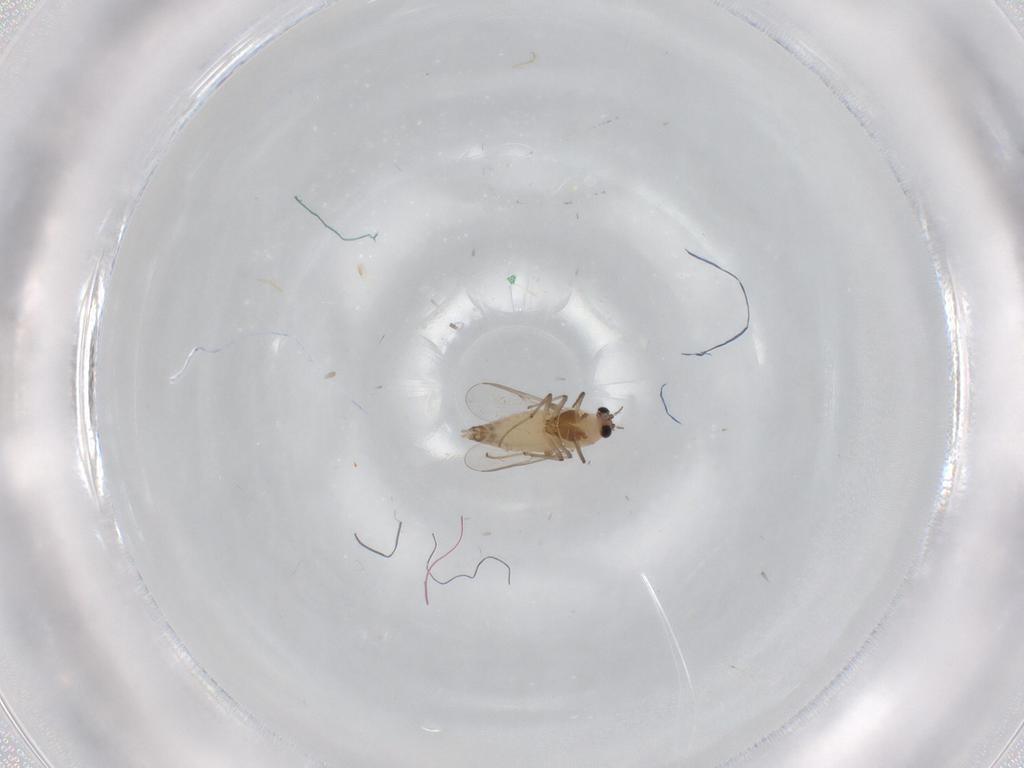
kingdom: Animalia
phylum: Arthropoda
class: Insecta
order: Diptera
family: Chironomidae
